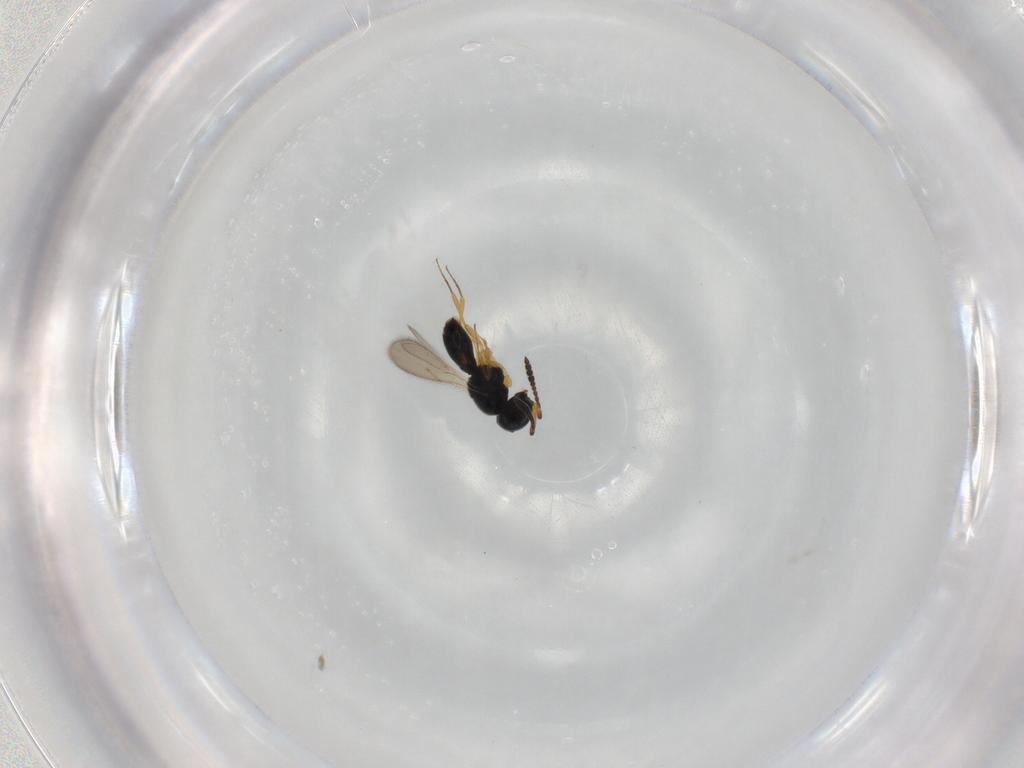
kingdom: Animalia
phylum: Arthropoda
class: Insecta
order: Hymenoptera
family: Scelionidae
